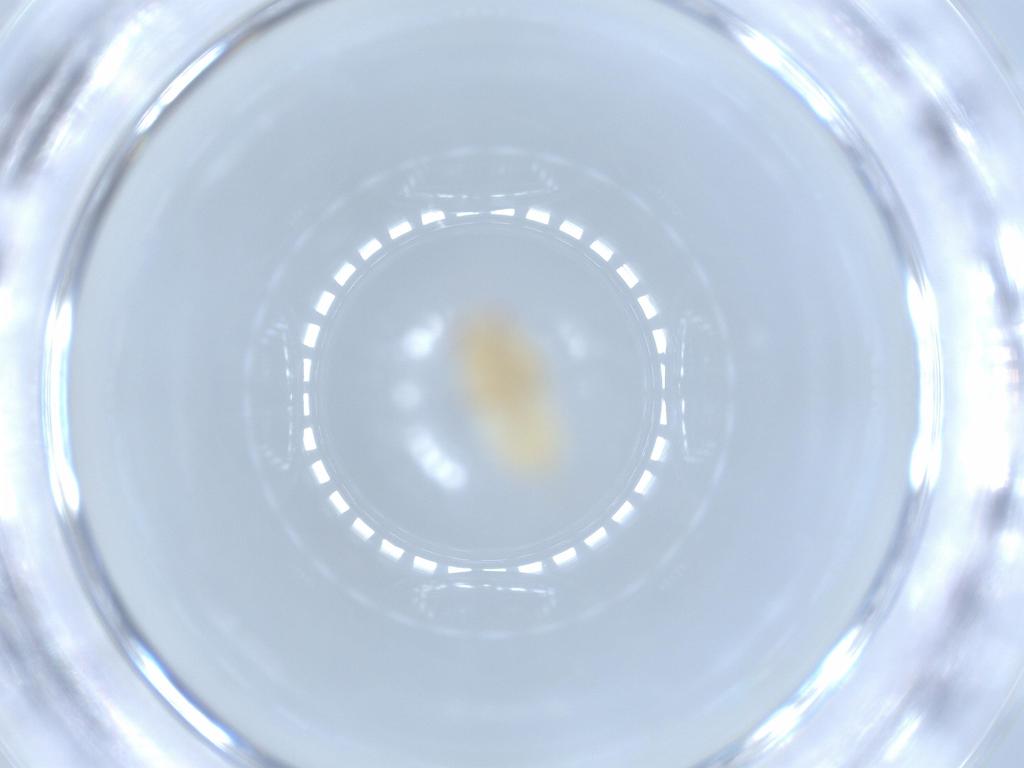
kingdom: Animalia
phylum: Arthropoda
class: Insecta
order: Hemiptera
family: Flatidae
